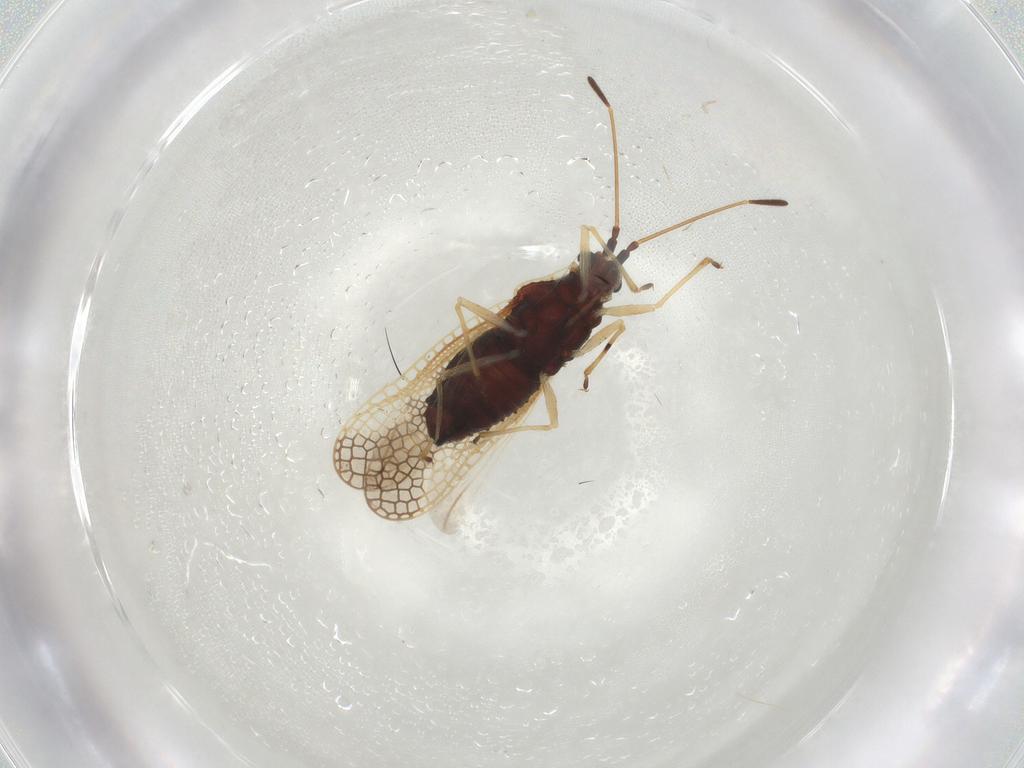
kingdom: Animalia
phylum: Arthropoda
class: Insecta
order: Hemiptera
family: Tingidae
